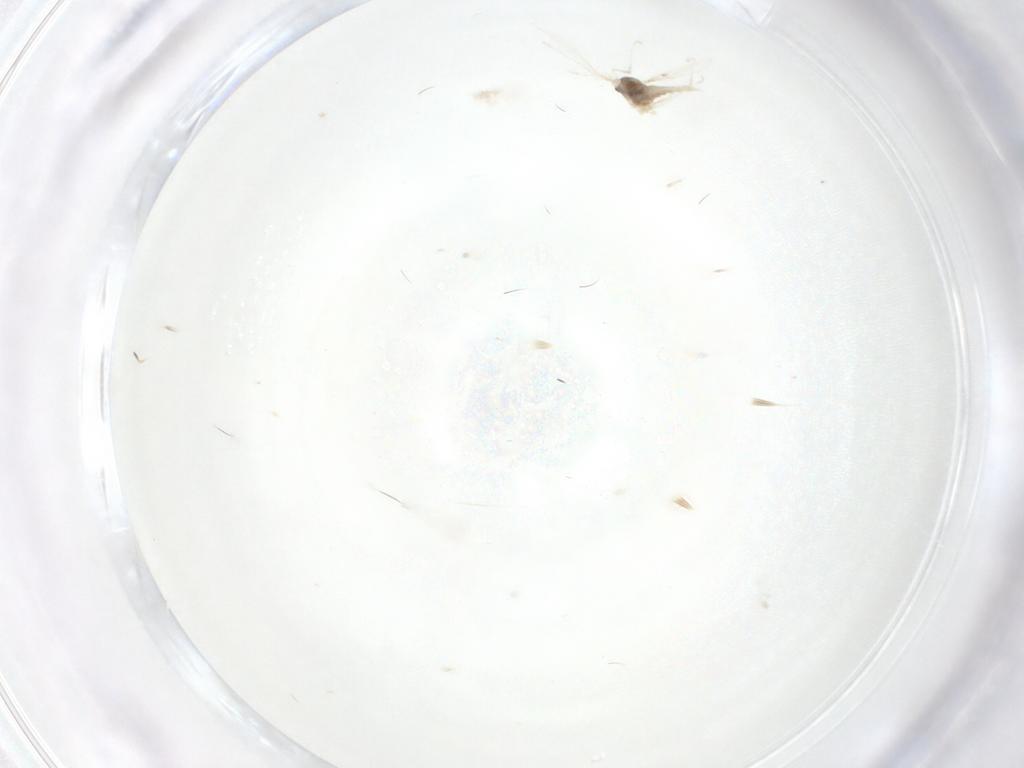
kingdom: Animalia
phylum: Arthropoda
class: Insecta
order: Diptera
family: Cecidomyiidae
